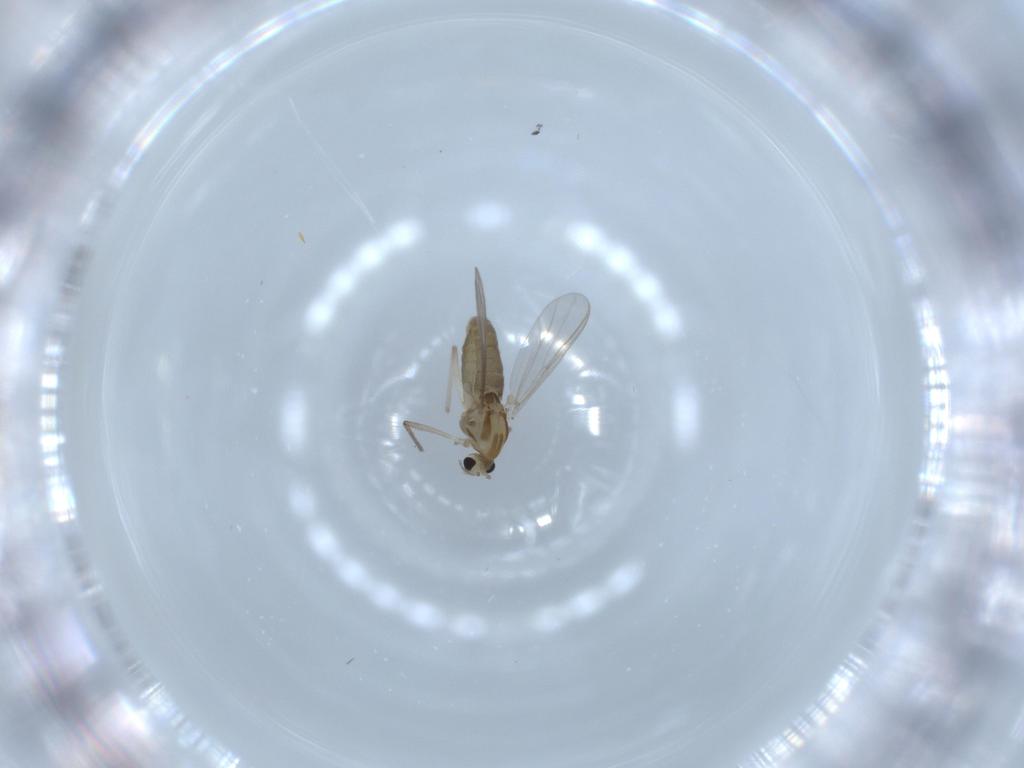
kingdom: Animalia
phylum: Arthropoda
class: Insecta
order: Diptera
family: Chironomidae
